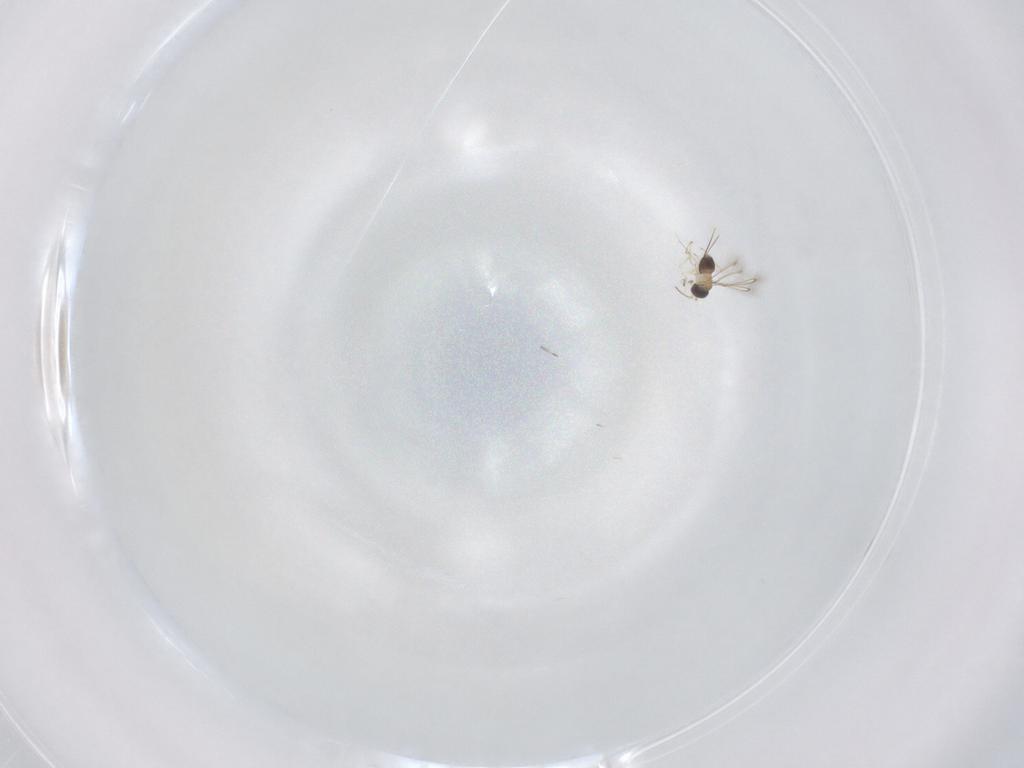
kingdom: Animalia
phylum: Arthropoda
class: Insecta
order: Hymenoptera
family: Mymaridae
